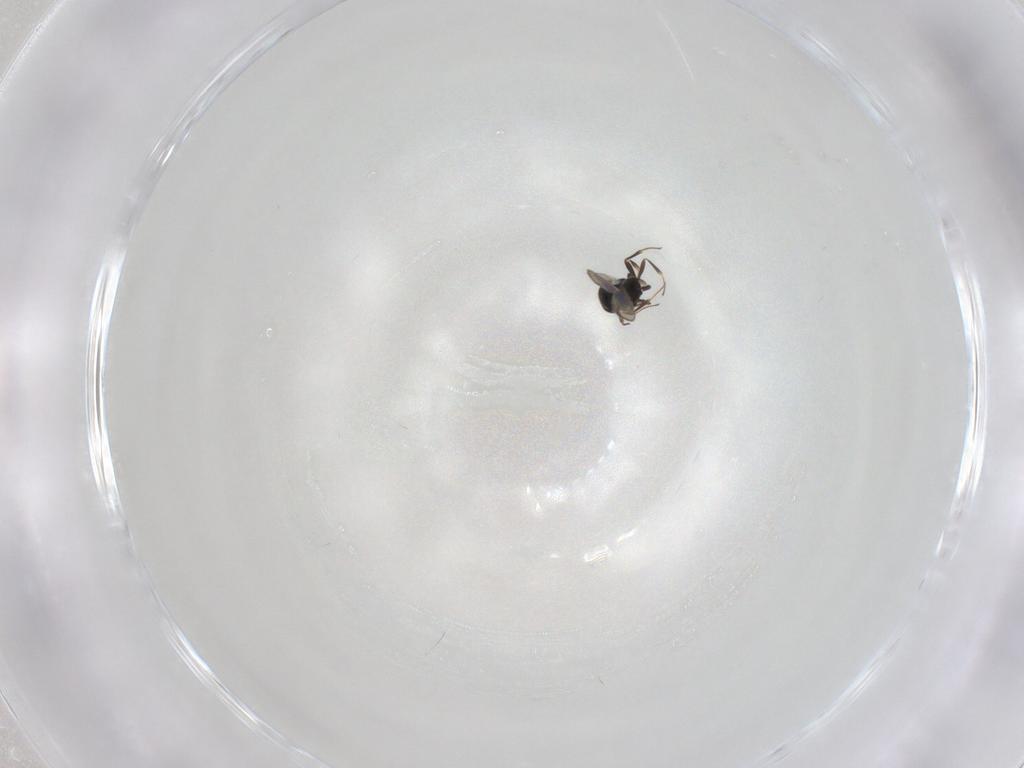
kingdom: Animalia
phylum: Arthropoda
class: Insecta
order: Hymenoptera
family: Scelionidae
